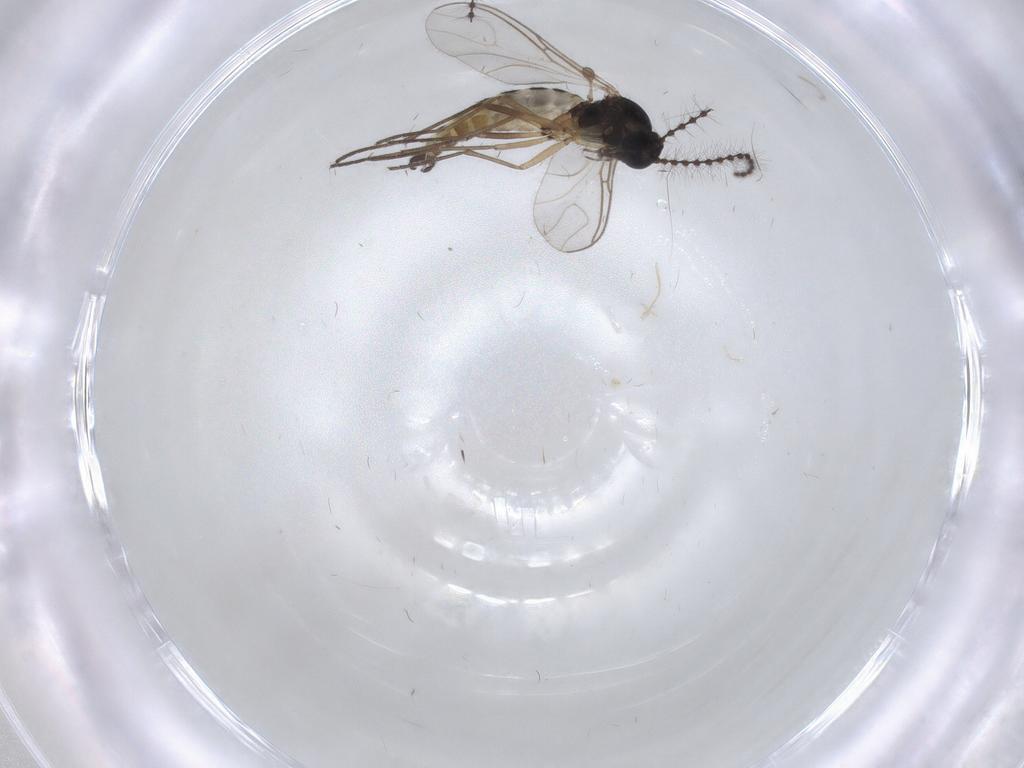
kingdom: Animalia
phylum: Arthropoda
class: Insecta
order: Diptera
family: Sciaridae
